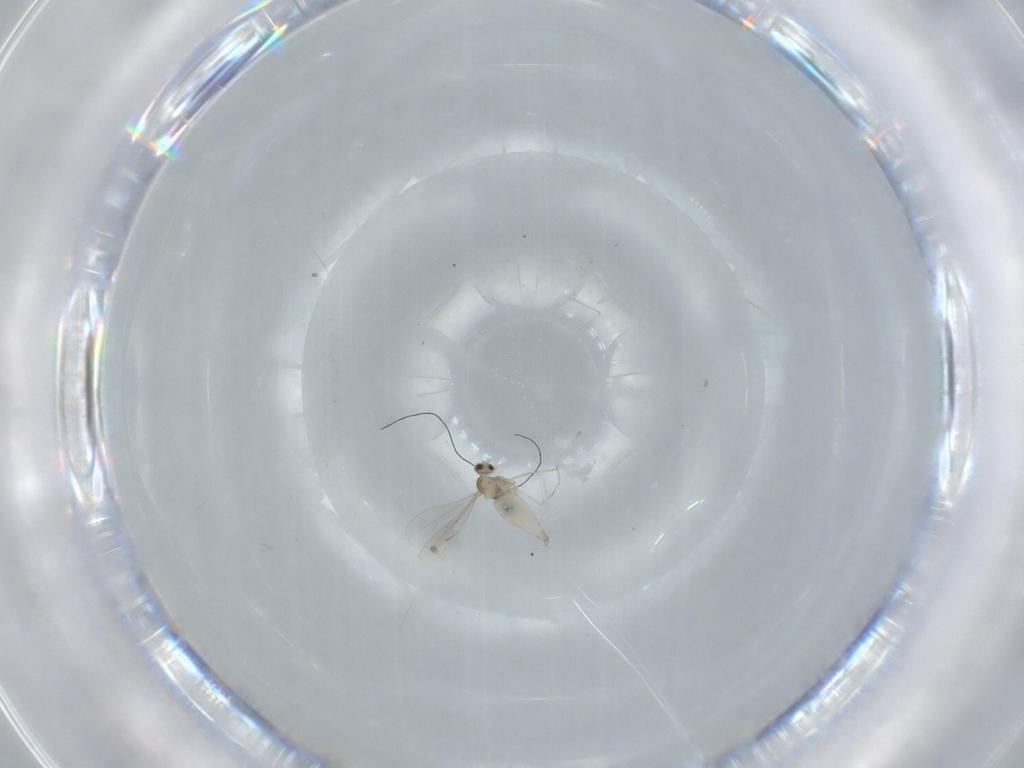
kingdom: Animalia
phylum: Arthropoda
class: Insecta
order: Diptera
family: Cecidomyiidae
